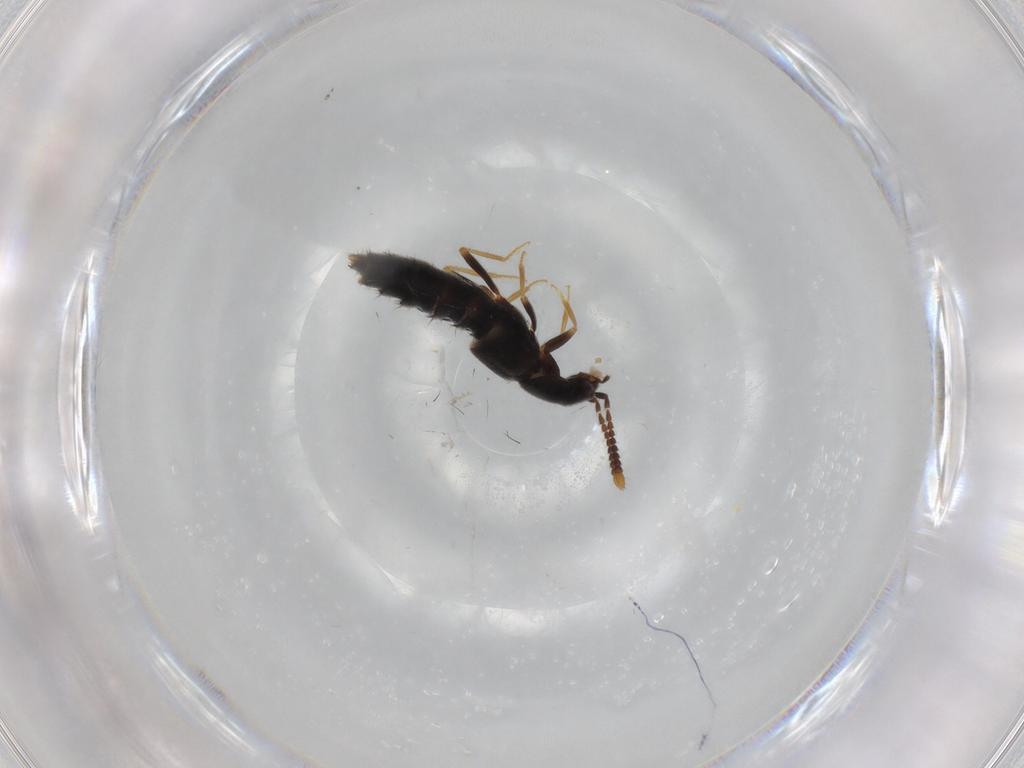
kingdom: Animalia
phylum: Arthropoda
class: Insecta
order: Coleoptera
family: Staphylinidae
